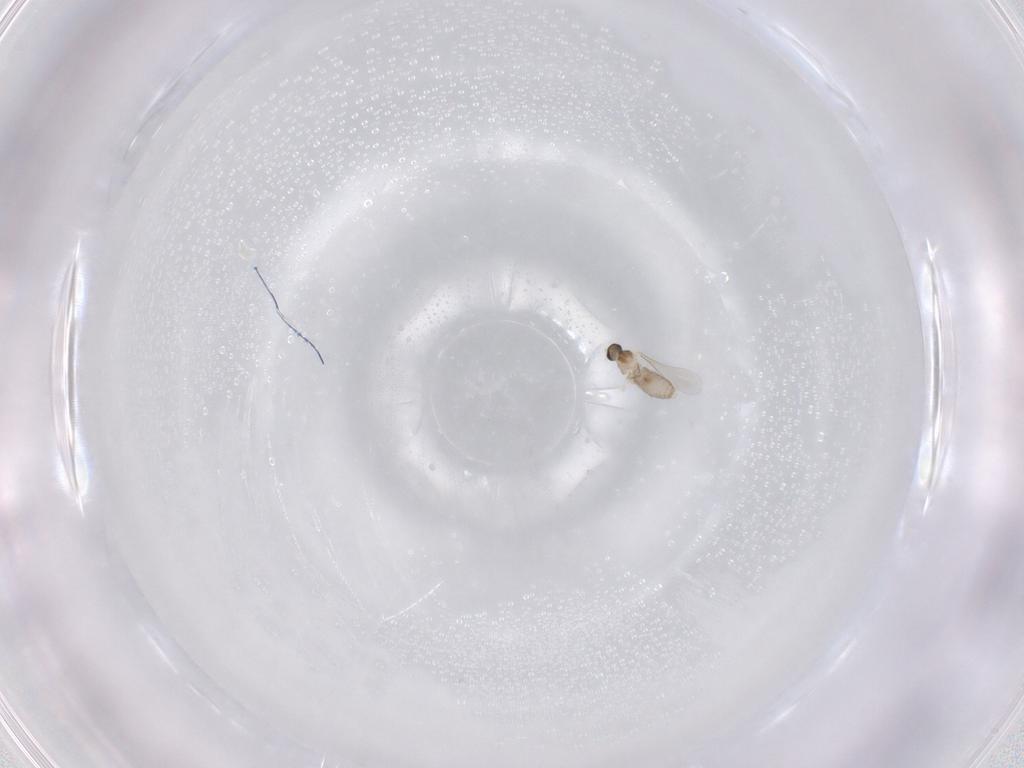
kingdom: Animalia
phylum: Arthropoda
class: Insecta
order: Diptera
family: Cecidomyiidae
